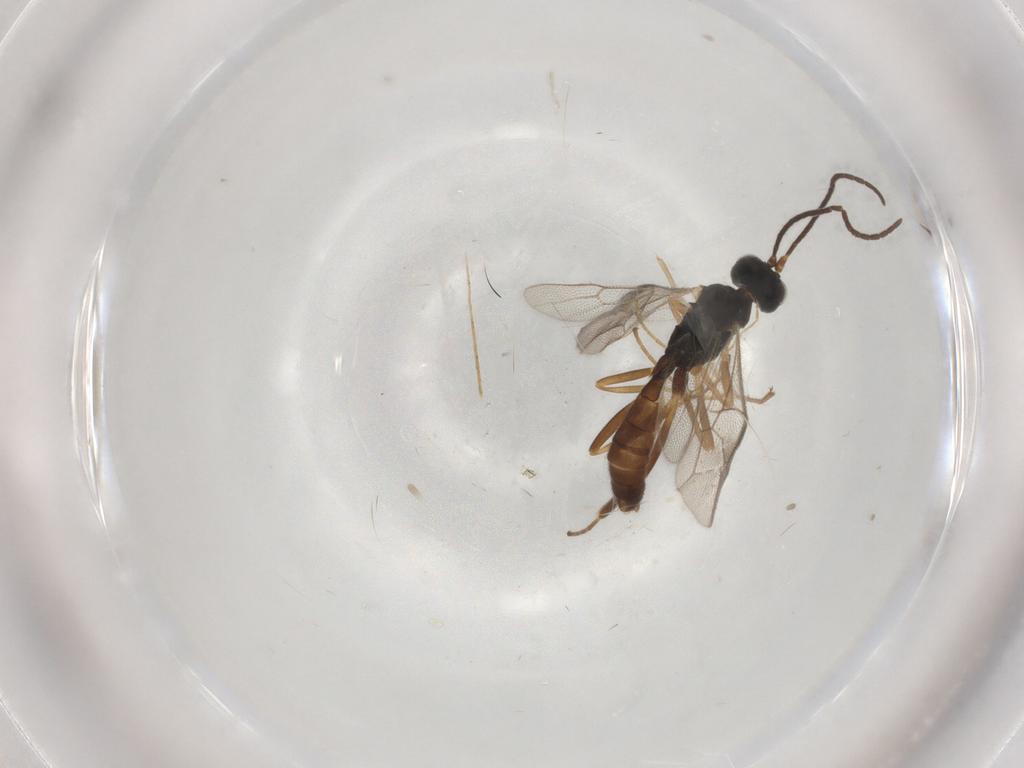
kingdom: Animalia
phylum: Arthropoda
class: Insecta
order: Hymenoptera
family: Ichneumonidae
